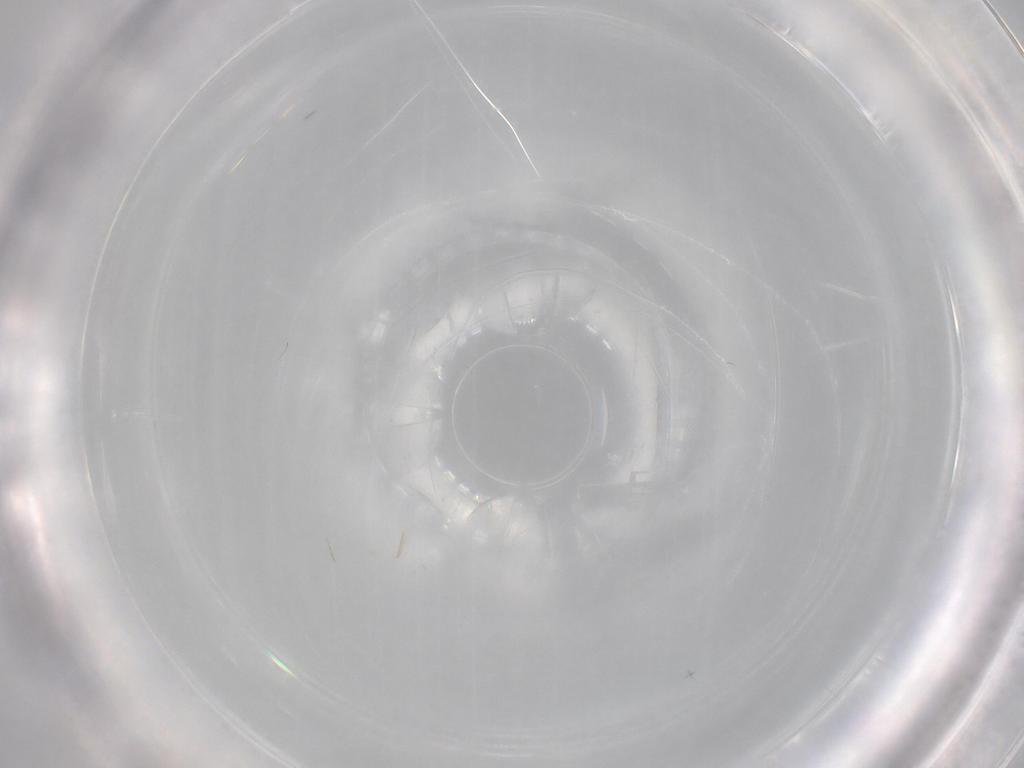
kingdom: Animalia
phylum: Arthropoda
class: Insecta
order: Diptera
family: Cecidomyiidae
